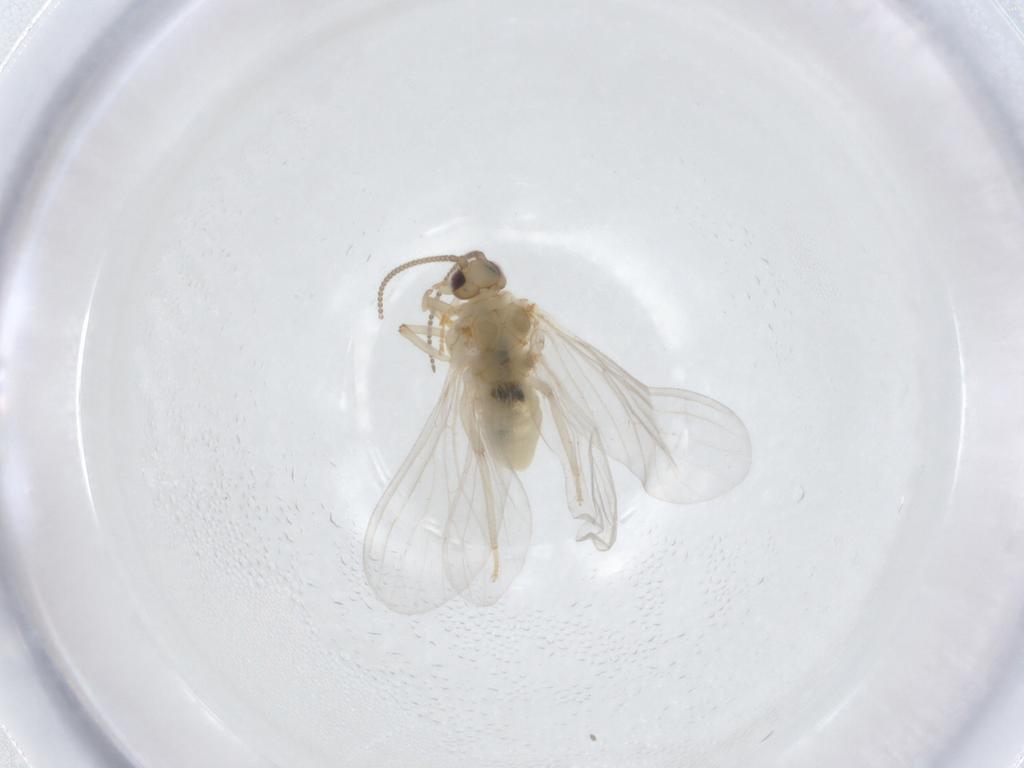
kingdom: Animalia
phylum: Arthropoda
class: Insecta
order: Neuroptera
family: Coniopterygidae
